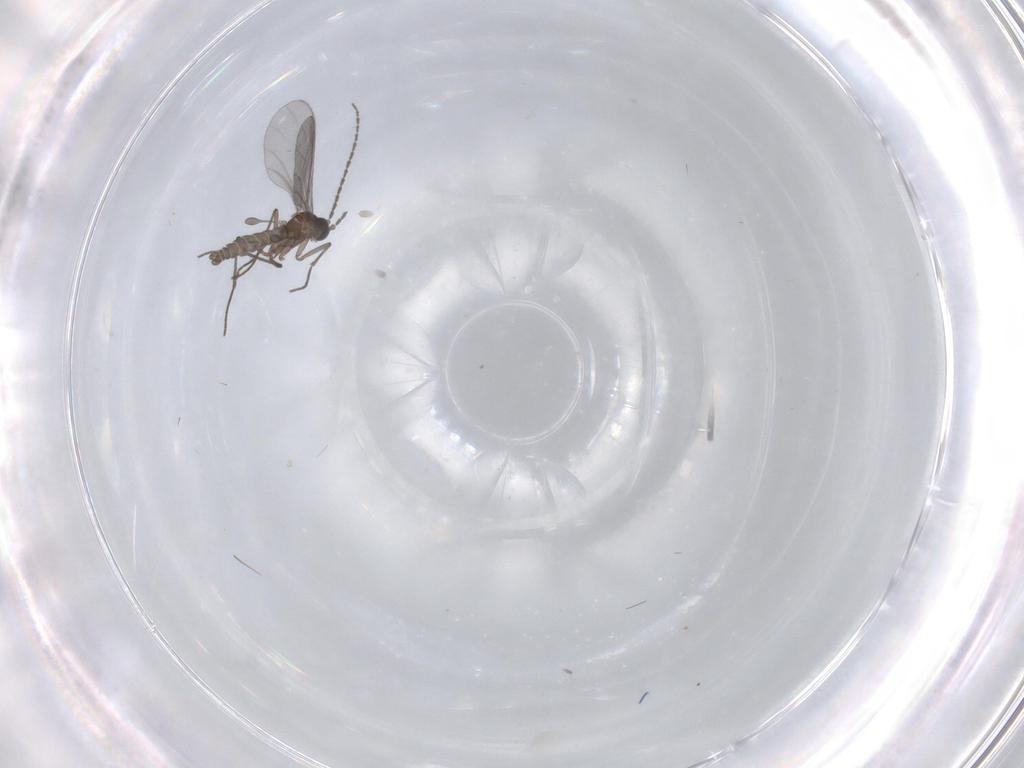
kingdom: Animalia
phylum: Arthropoda
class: Insecta
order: Diptera
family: Sciaridae
